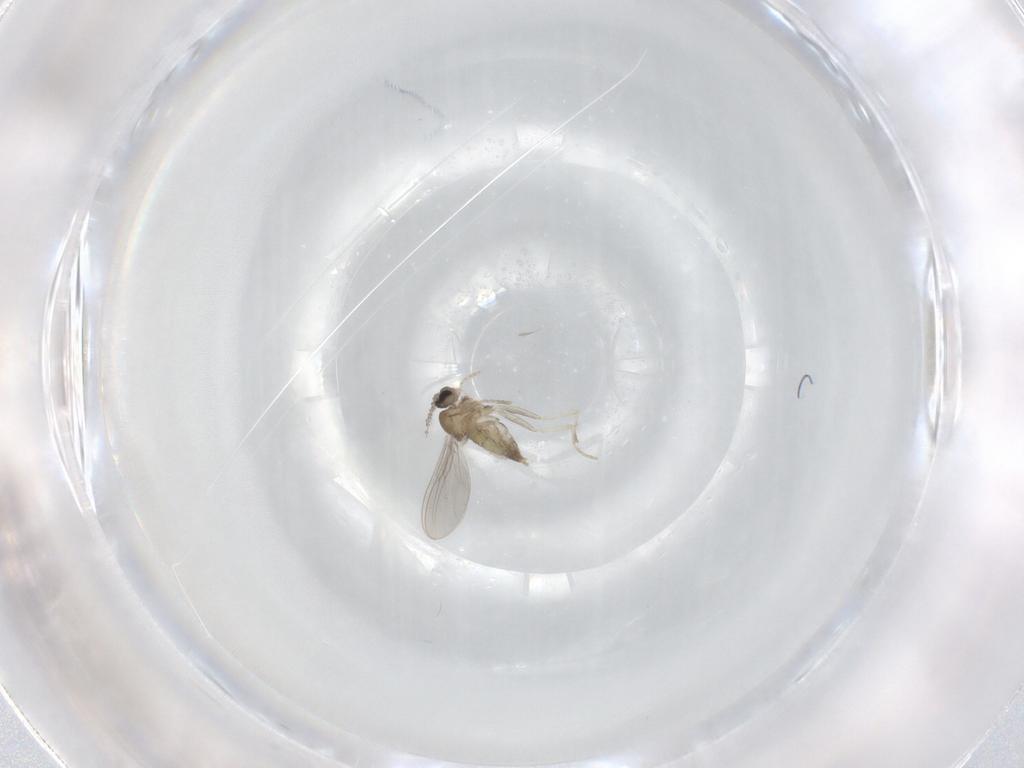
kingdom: Animalia
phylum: Arthropoda
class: Insecta
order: Diptera
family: Cecidomyiidae
